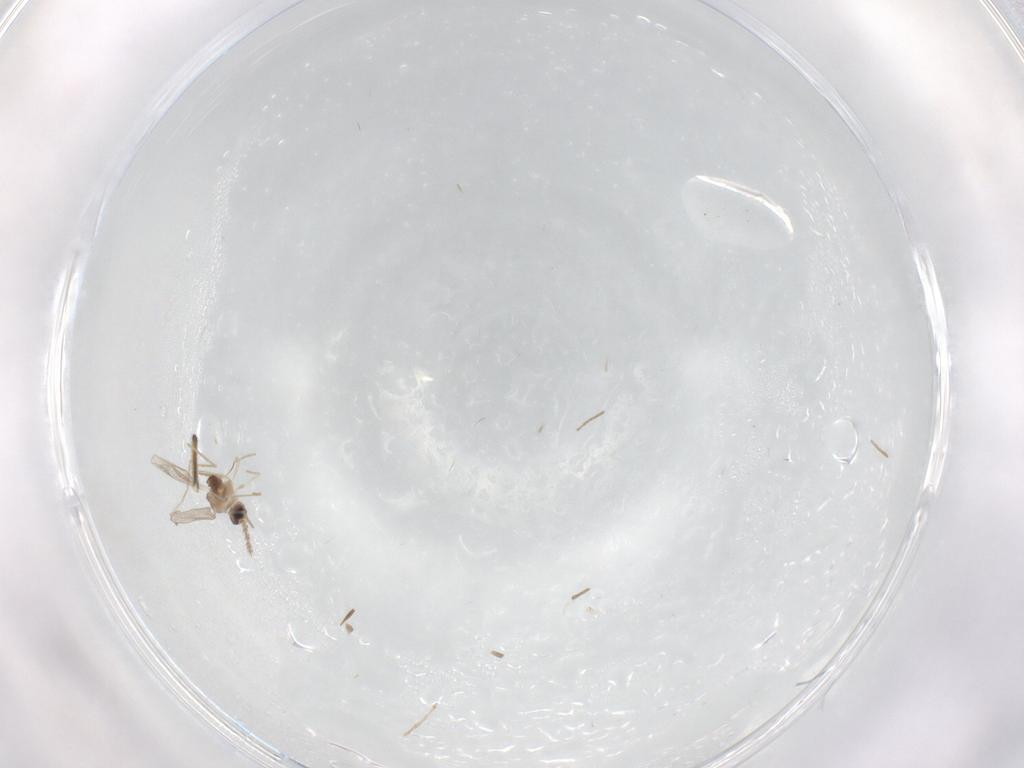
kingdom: Animalia
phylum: Arthropoda
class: Insecta
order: Diptera
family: Cecidomyiidae
